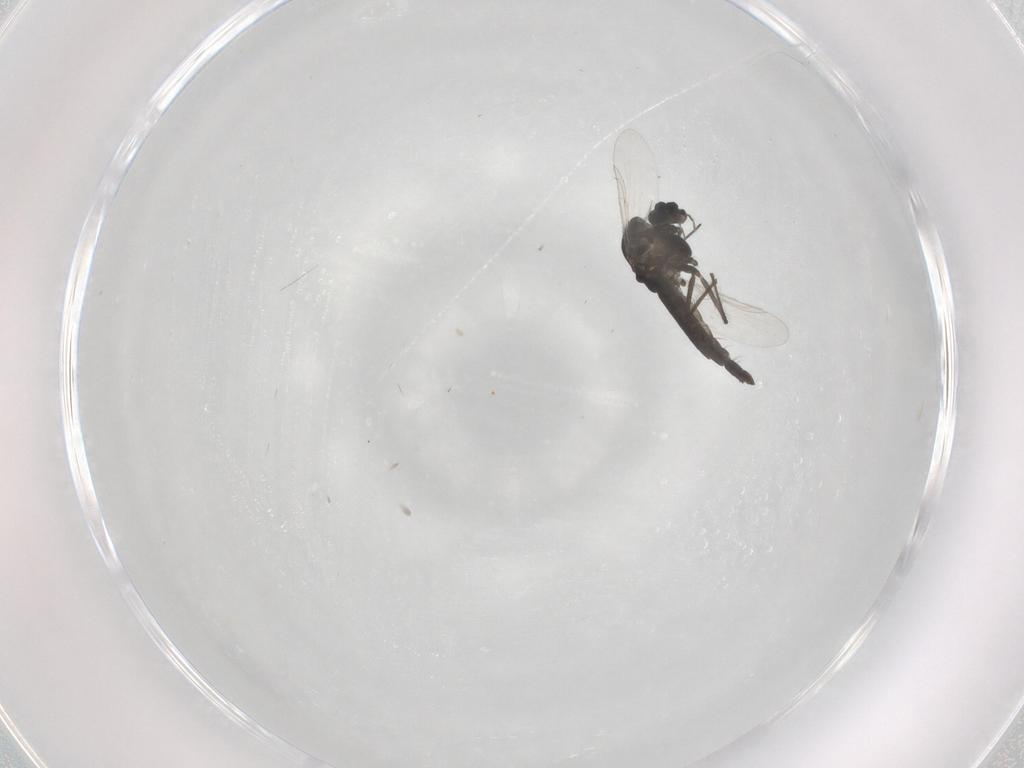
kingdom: Animalia
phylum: Arthropoda
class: Insecta
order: Diptera
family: Chironomidae
